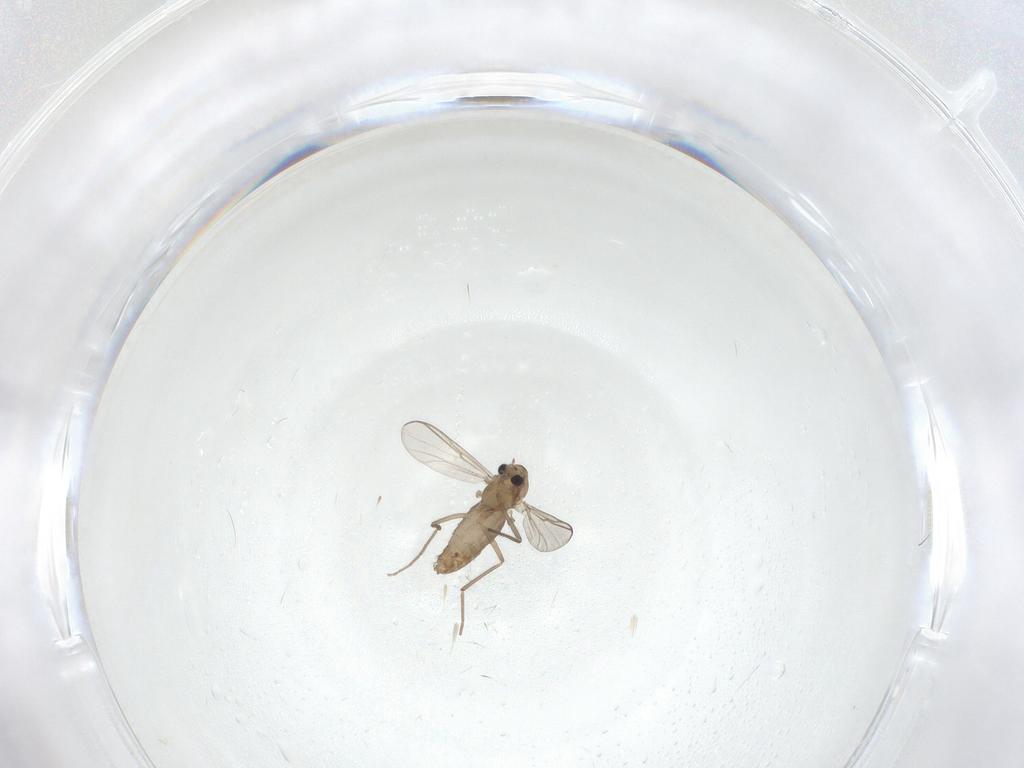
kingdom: Animalia
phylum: Arthropoda
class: Insecta
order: Diptera
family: Chironomidae
